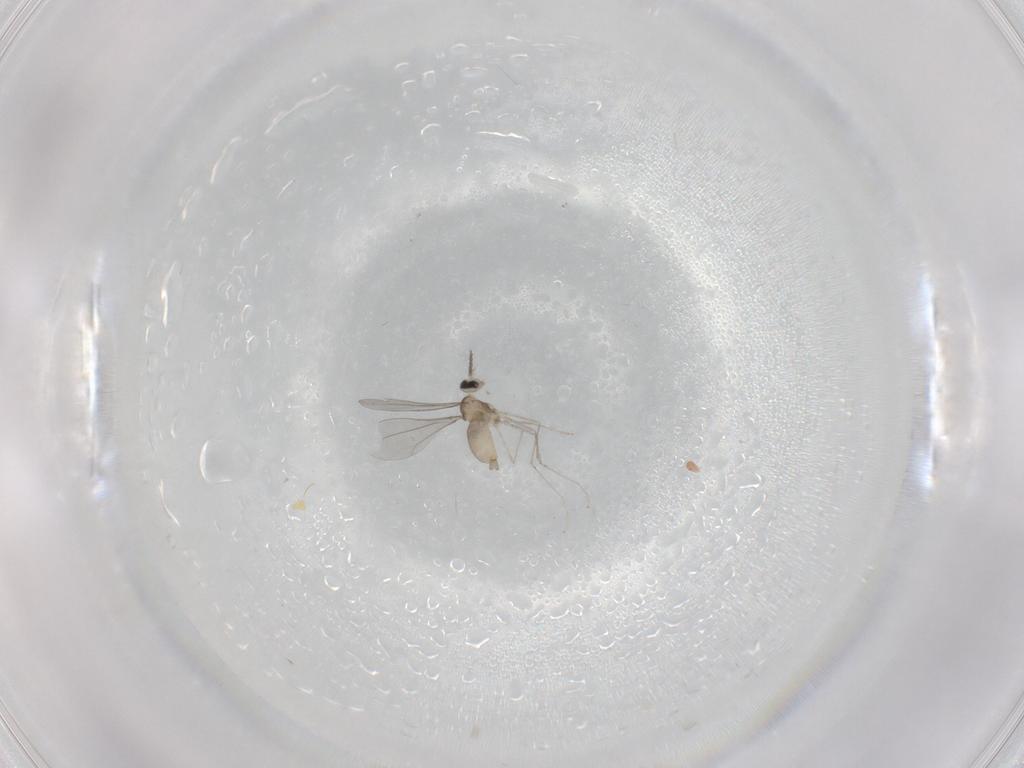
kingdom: Animalia
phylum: Arthropoda
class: Insecta
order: Diptera
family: Cecidomyiidae
